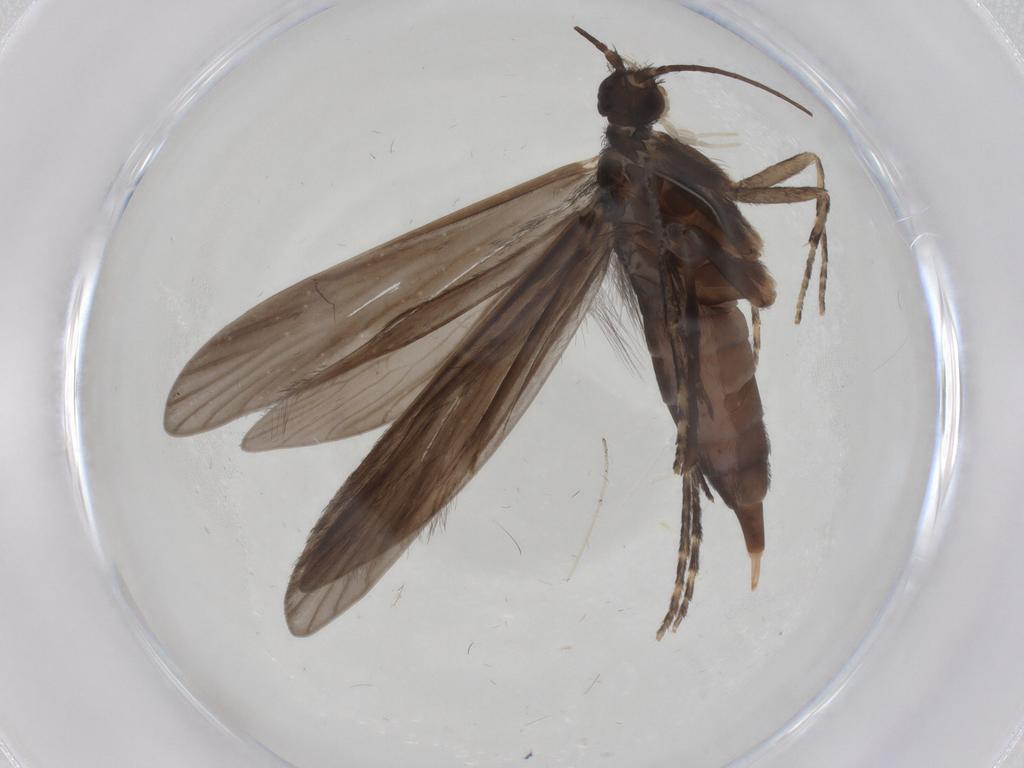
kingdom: Animalia
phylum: Arthropoda
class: Insecta
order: Trichoptera
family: Xiphocentronidae
